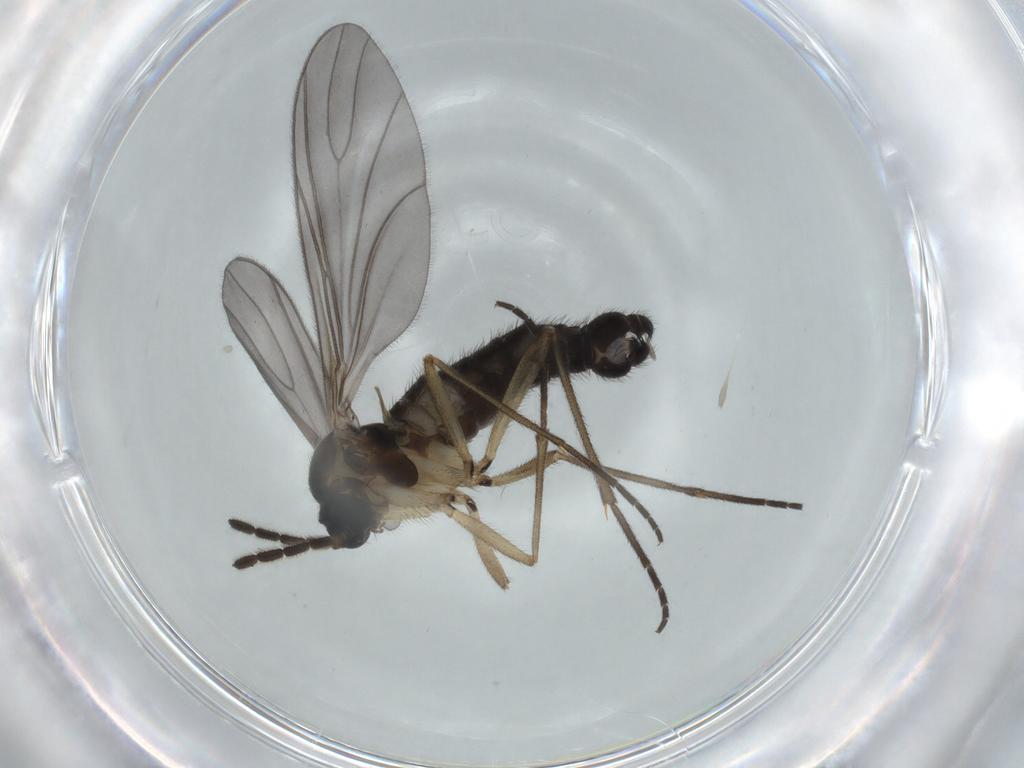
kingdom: Animalia
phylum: Arthropoda
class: Insecta
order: Diptera
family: Sciaridae
